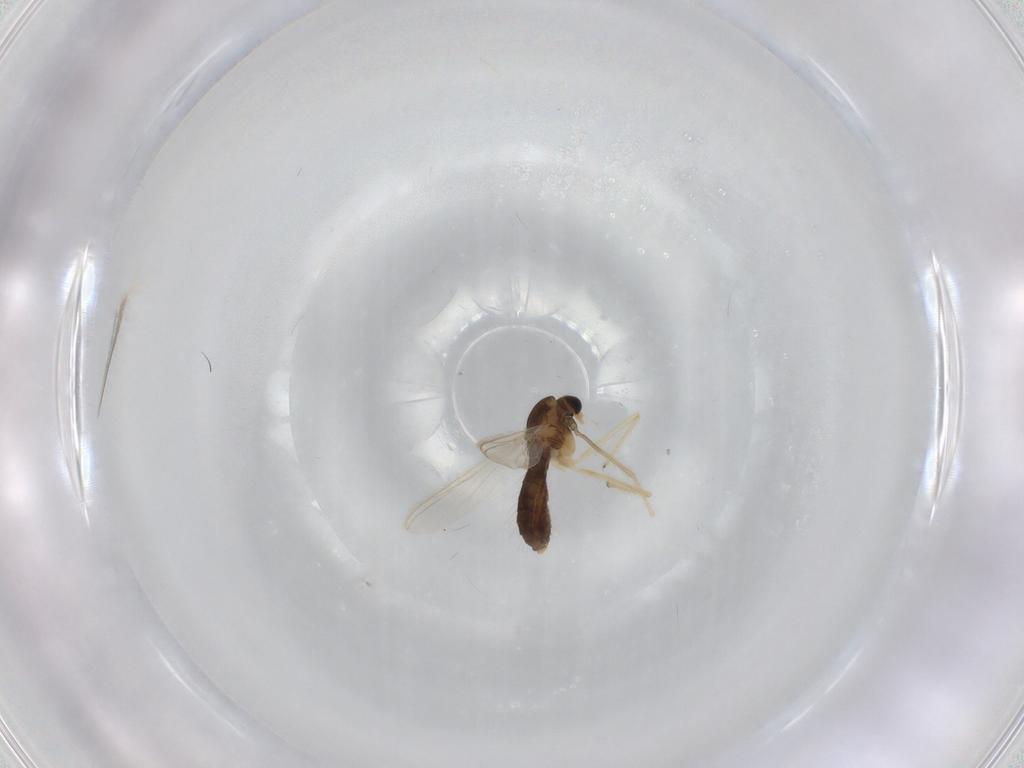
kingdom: Animalia
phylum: Arthropoda
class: Insecta
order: Diptera
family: Chironomidae
